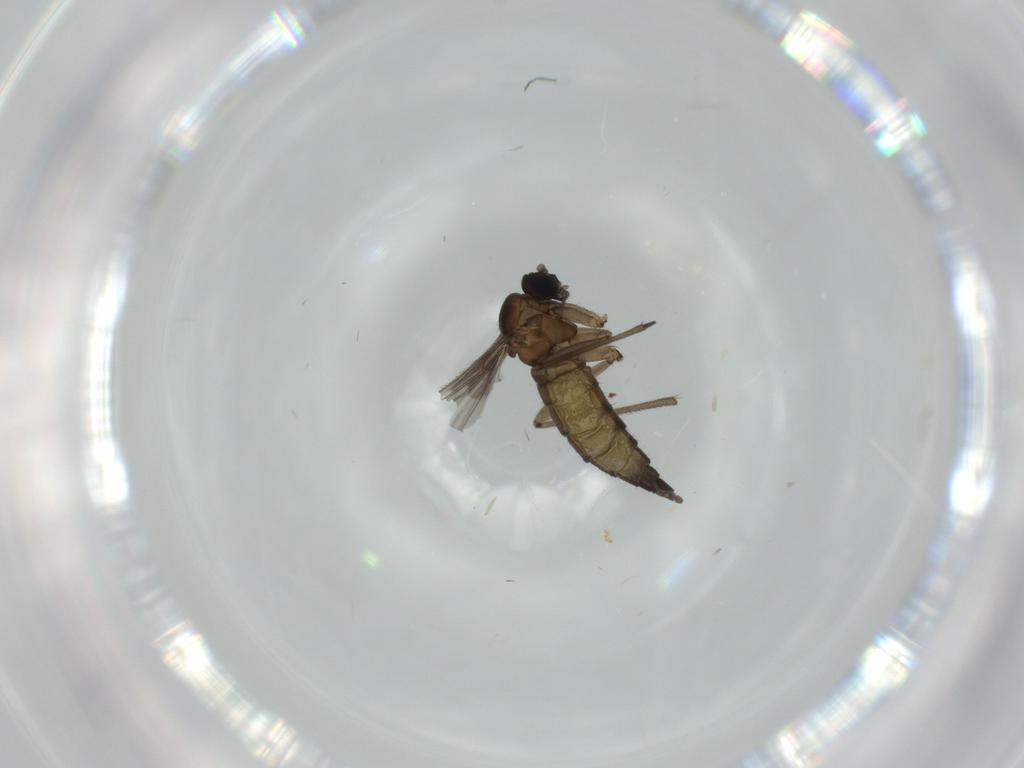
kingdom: Animalia
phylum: Arthropoda
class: Insecta
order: Diptera
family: Sciaridae
